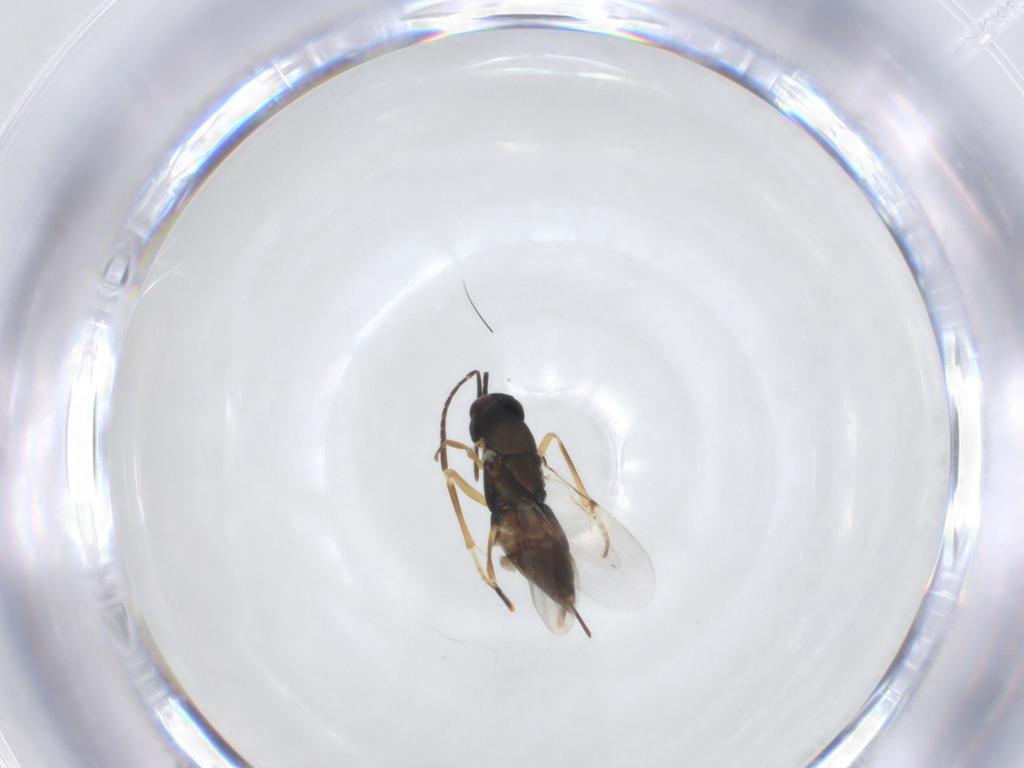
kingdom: Animalia
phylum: Arthropoda
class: Insecta
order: Hymenoptera
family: Encyrtidae
